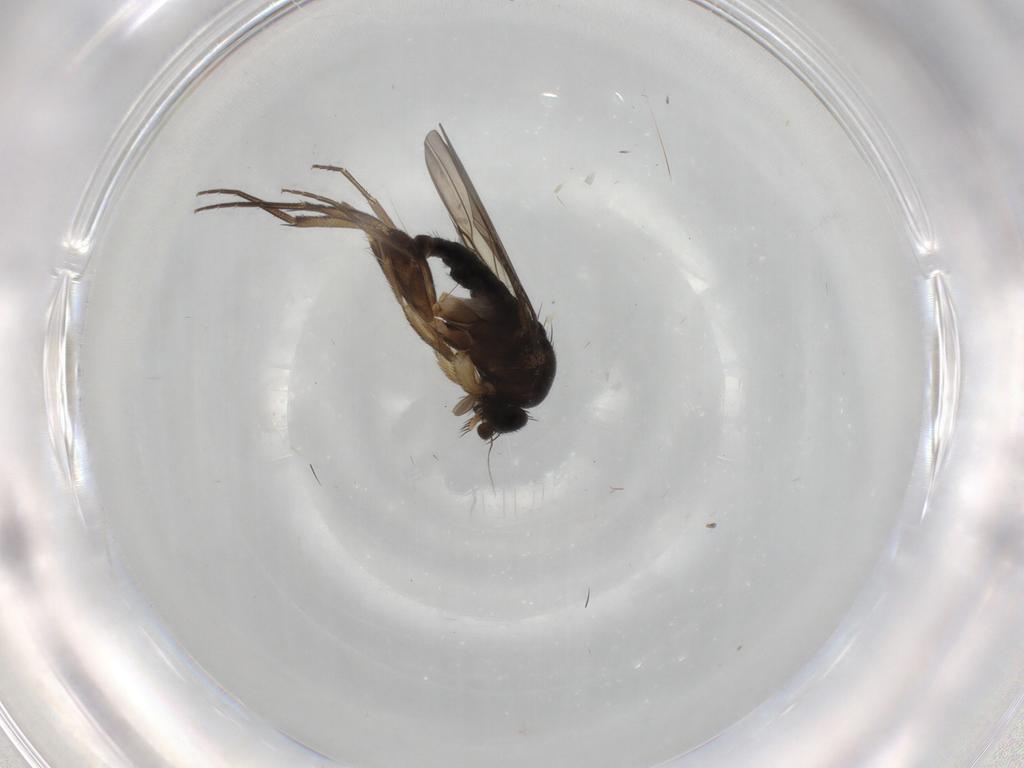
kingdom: Animalia
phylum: Arthropoda
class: Insecta
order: Diptera
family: Phoridae
